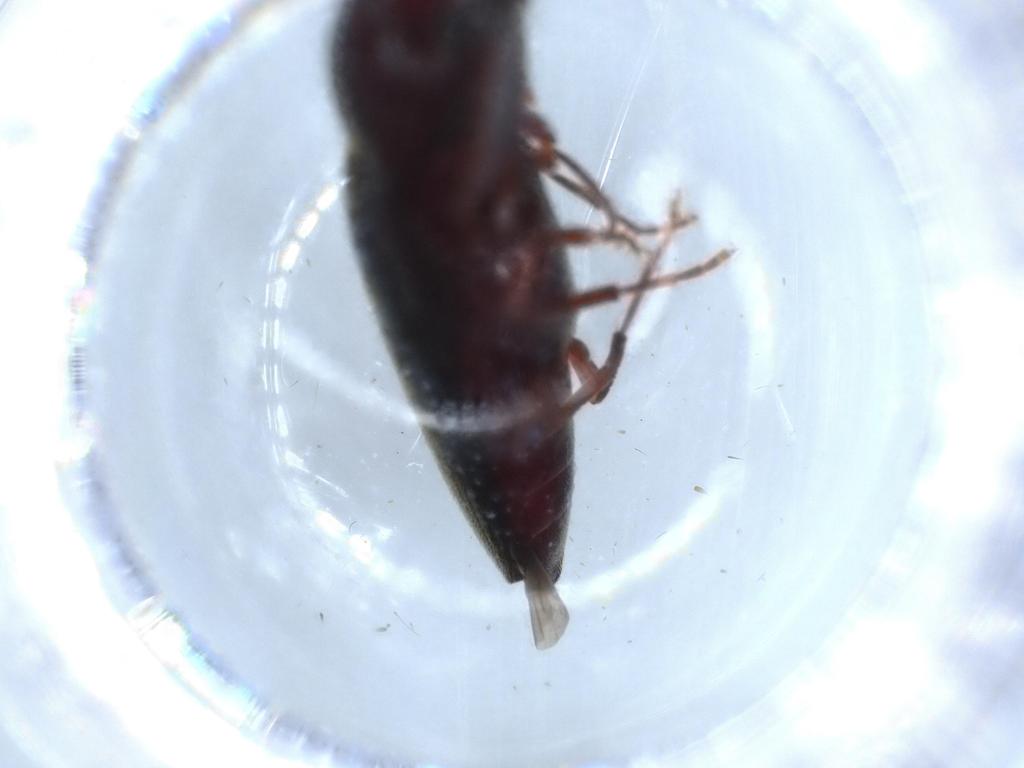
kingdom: Animalia
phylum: Arthropoda
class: Insecta
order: Coleoptera
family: Eucnemidae
